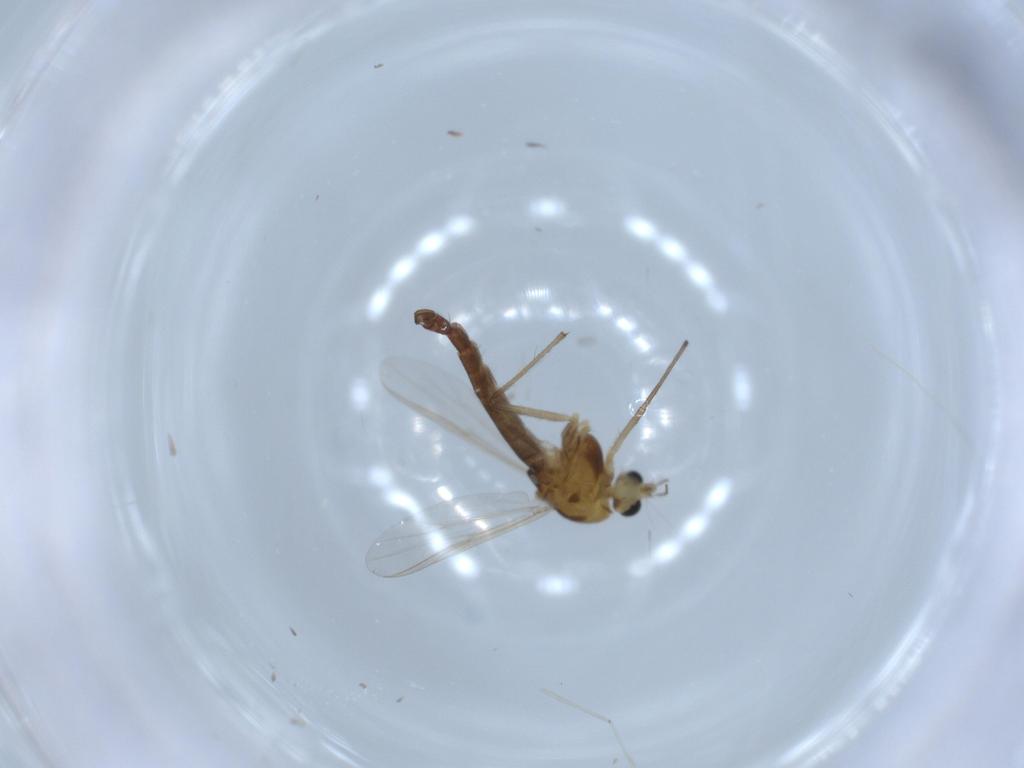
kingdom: Animalia
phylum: Arthropoda
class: Insecta
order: Diptera
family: Chironomidae
